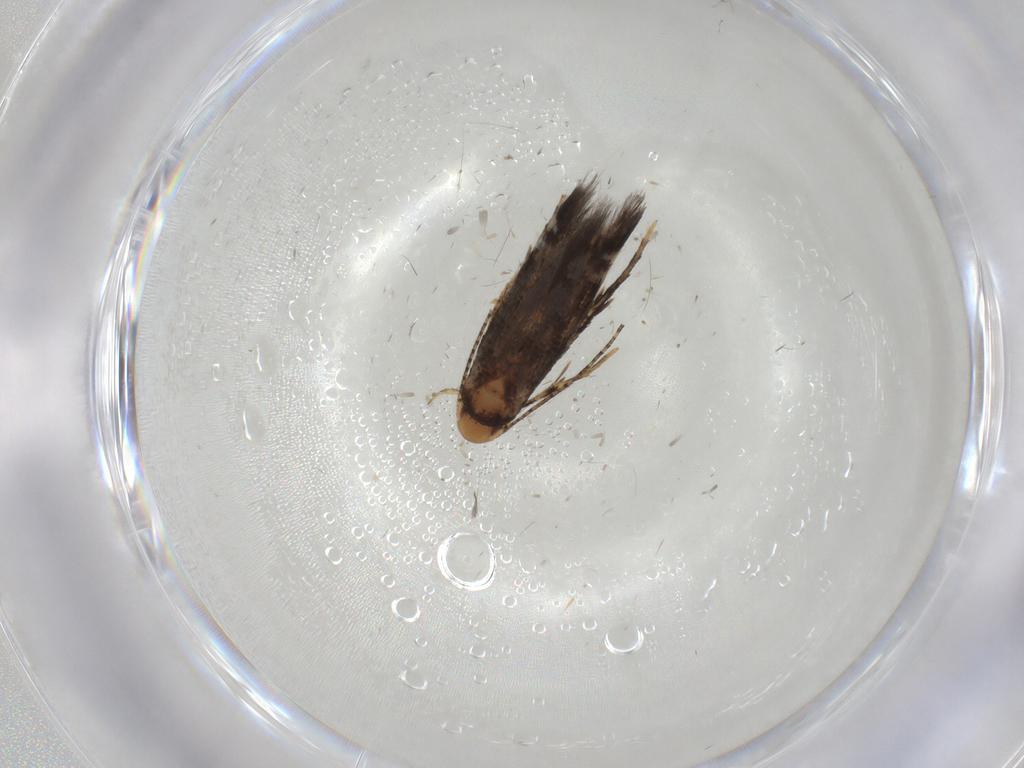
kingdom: Animalia
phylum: Arthropoda
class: Insecta
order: Lepidoptera
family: Momphidae
